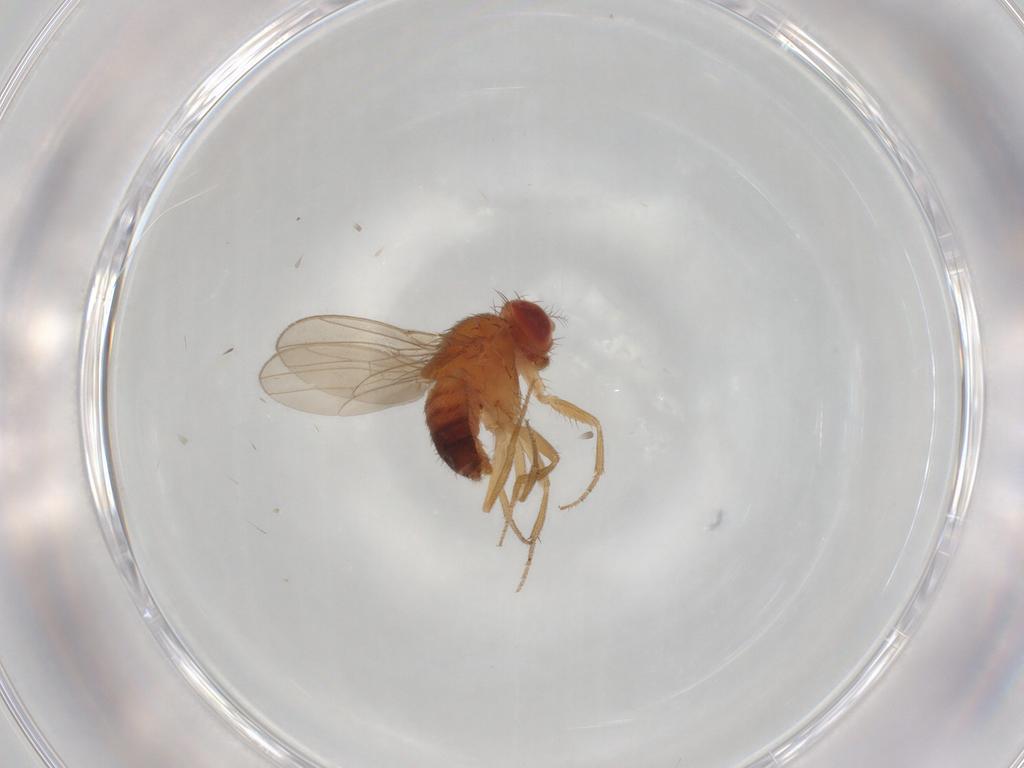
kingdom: Animalia
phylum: Arthropoda
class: Insecta
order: Diptera
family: Drosophilidae
